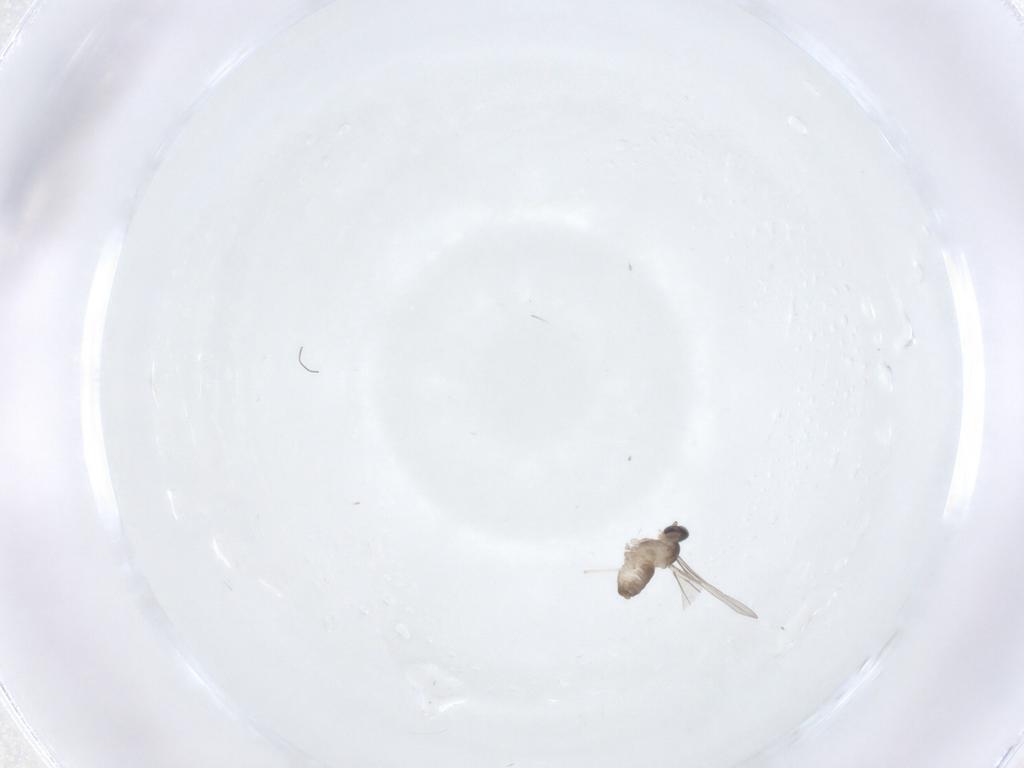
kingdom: Animalia
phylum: Arthropoda
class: Insecta
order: Diptera
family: Cecidomyiidae
